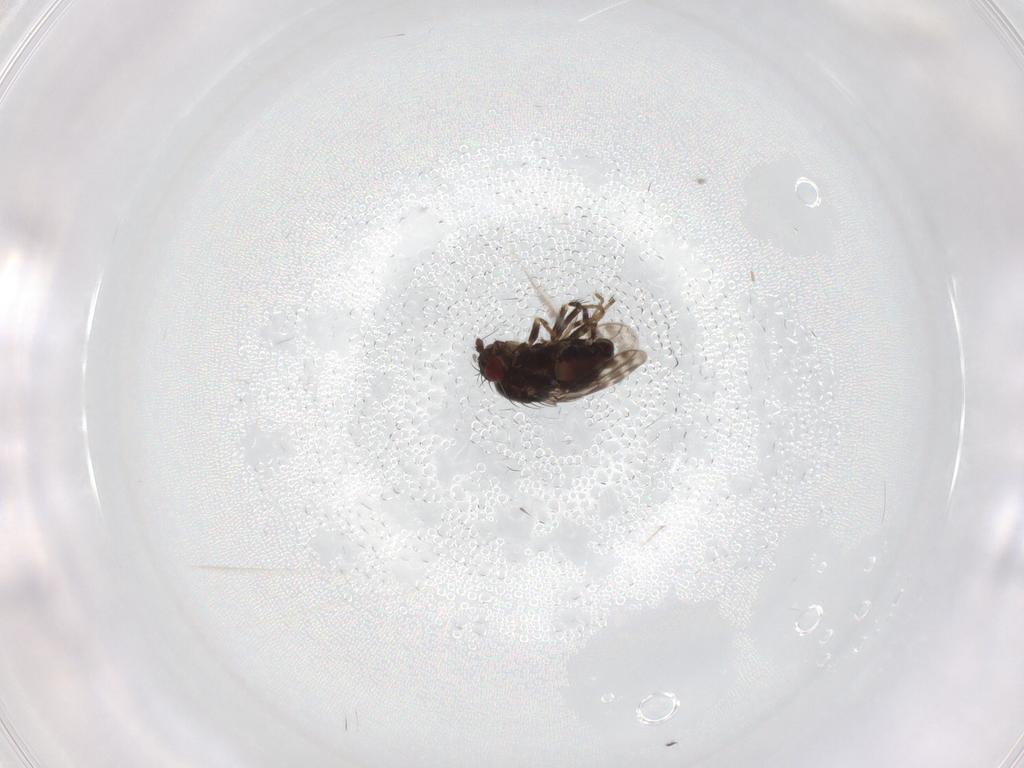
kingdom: Animalia
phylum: Arthropoda
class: Insecta
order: Diptera
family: Sphaeroceridae
